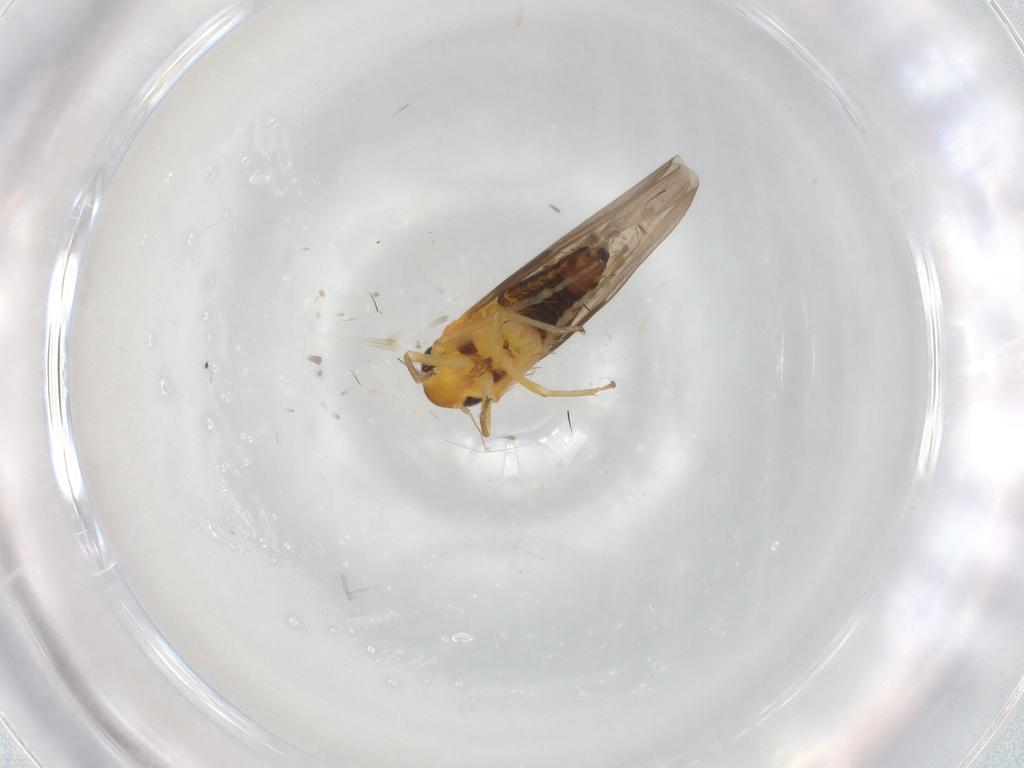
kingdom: Animalia
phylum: Arthropoda
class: Insecta
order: Hemiptera
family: Cicadellidae
